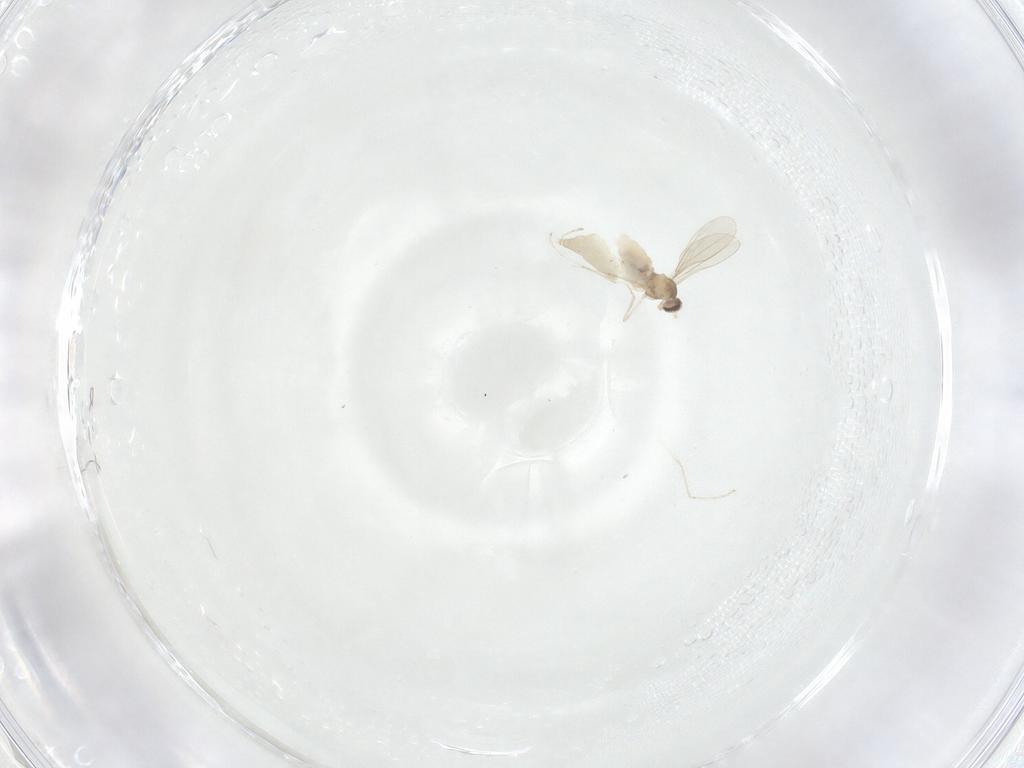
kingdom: Animalia
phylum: Arthropoda
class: Insecta
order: Diptera
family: Cecidomyiidae
